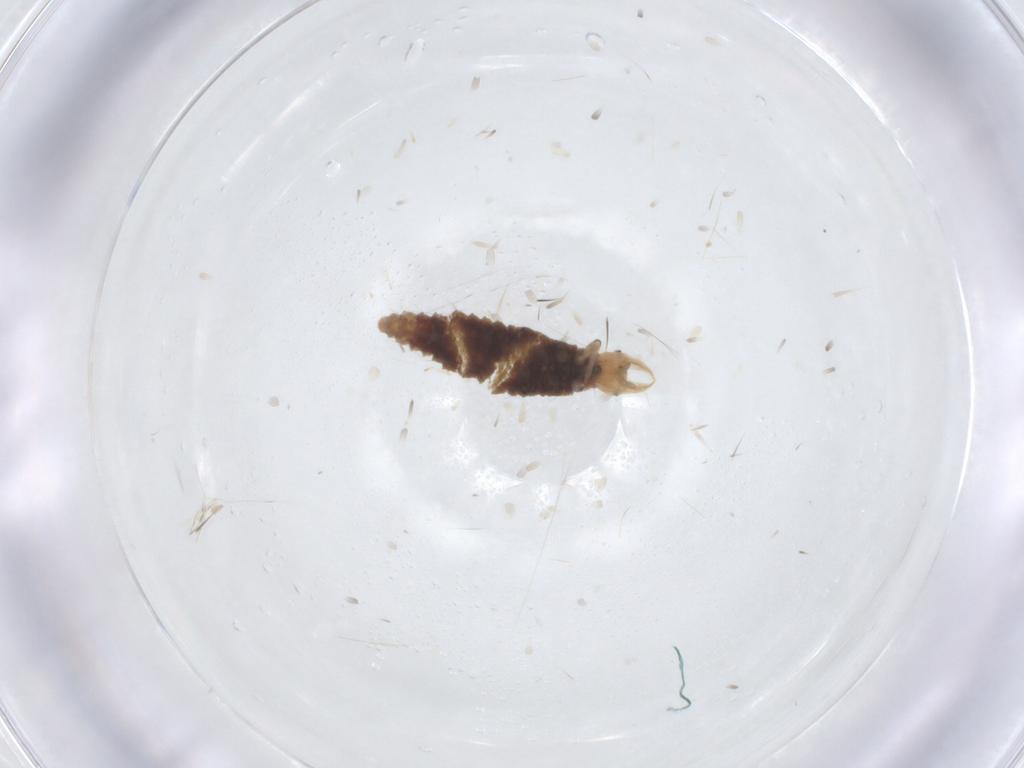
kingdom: Animalia
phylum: Arthropoda
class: Insecta
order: Neuroptera
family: Hemerobiidae
